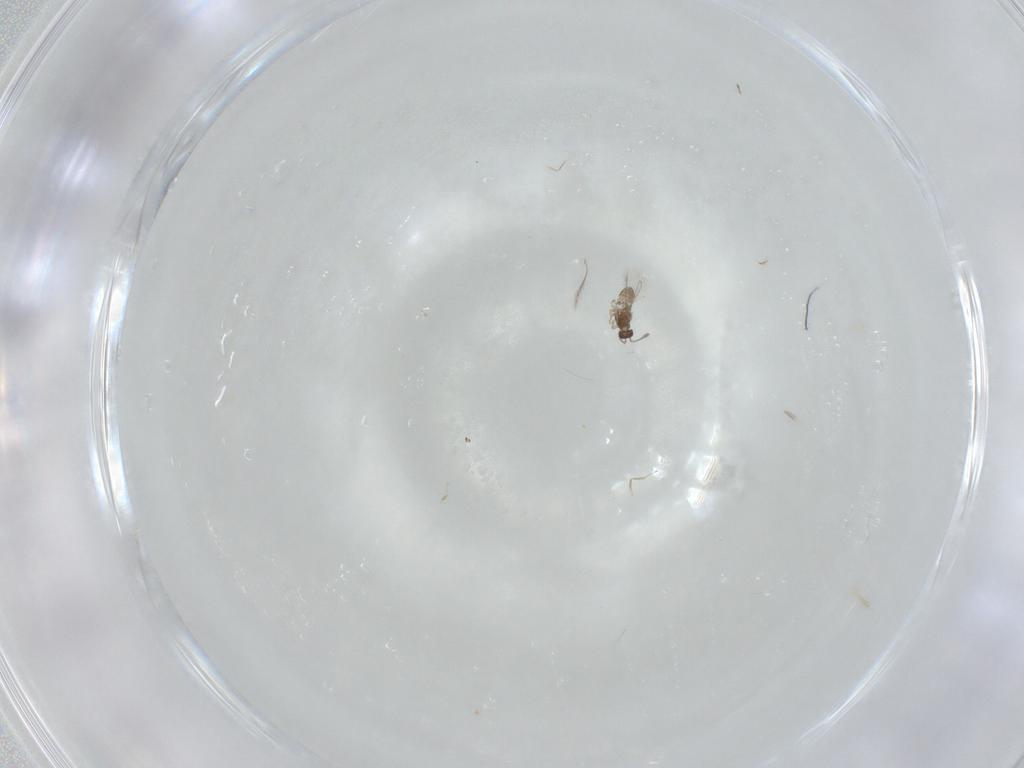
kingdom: Animalia
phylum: Arthropoda
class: Insecta
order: Hymenoptera
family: Eupelmidae
